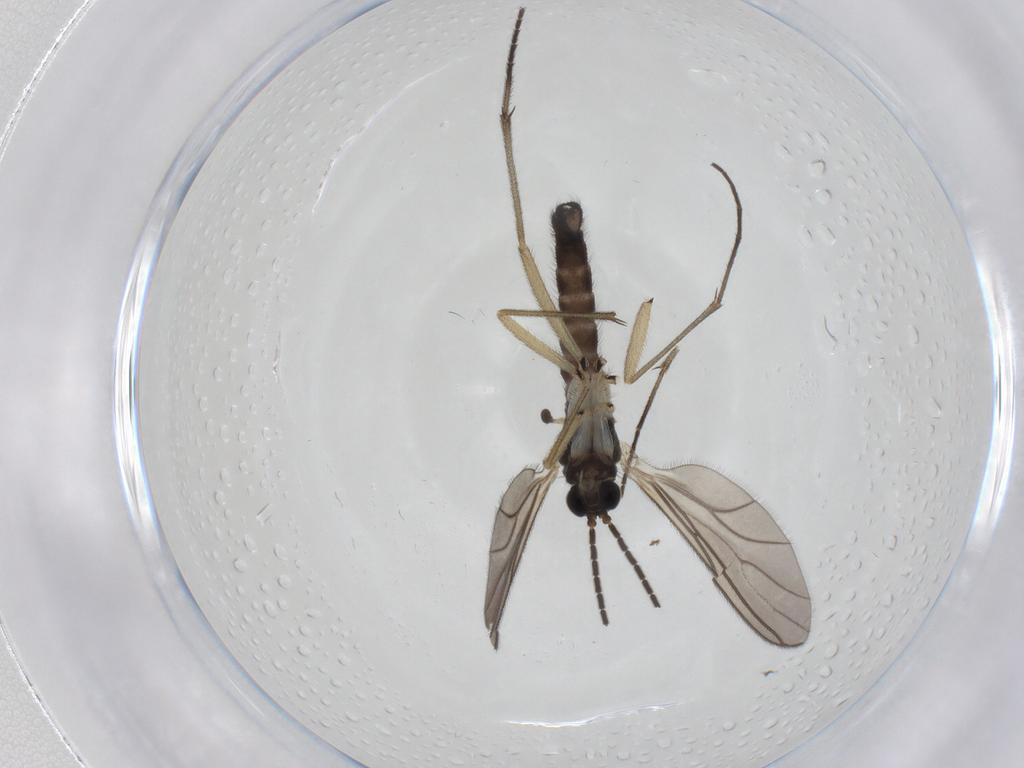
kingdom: Animalia
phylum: Arthropoda
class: Insecta
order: Diptera
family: Sciaridae
